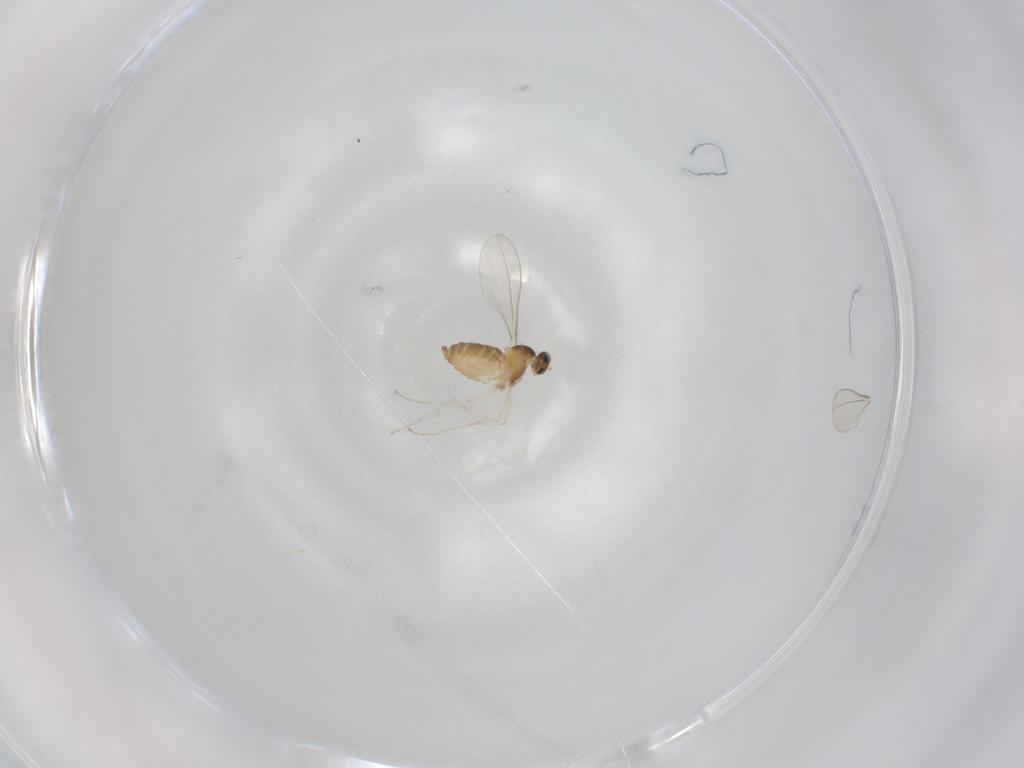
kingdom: Animalia
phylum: Arthropoda
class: Insecta
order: Diptera
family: Cecidomyiidae
